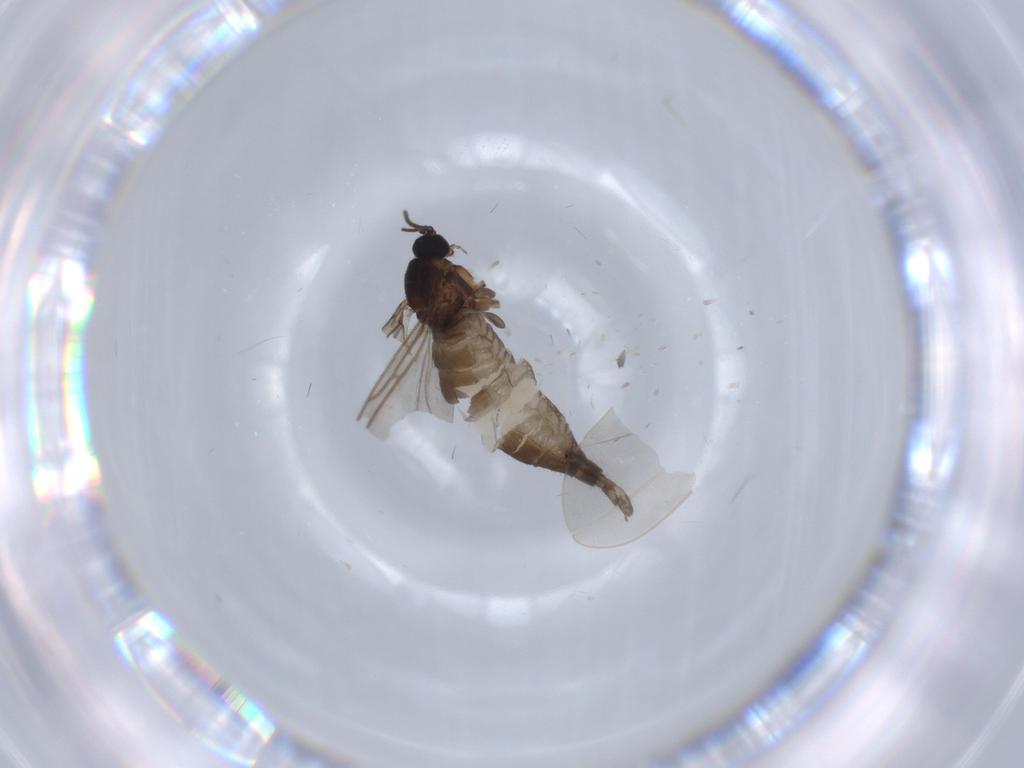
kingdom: Animalia
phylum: Arthropoda
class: Insecta
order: Diptera
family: Sciaridae
